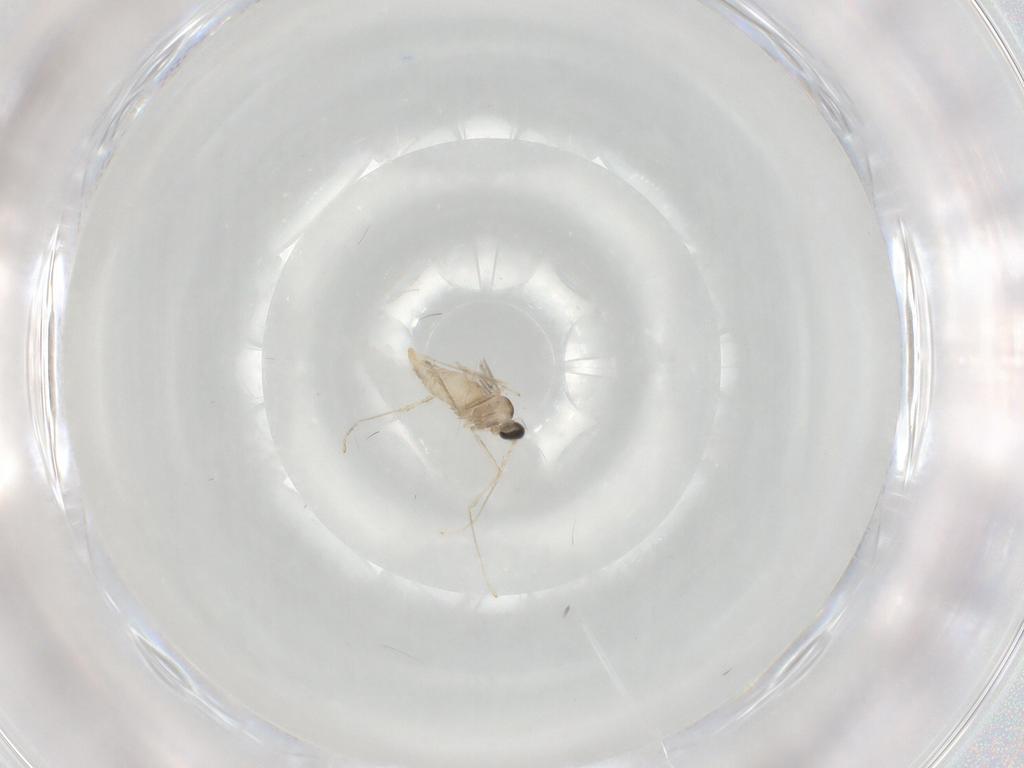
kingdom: Animalia
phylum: Arthropoda
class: Insecta
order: Diptera
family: Cecidomyiidae
